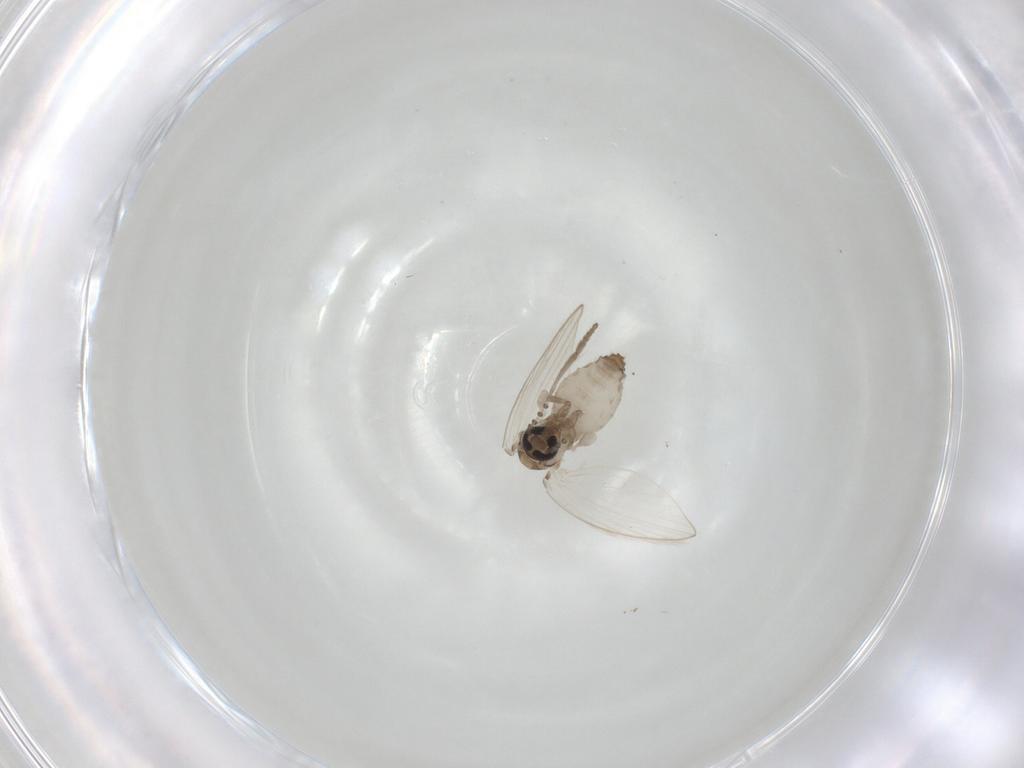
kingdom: Animalia
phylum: Arthropoda
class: Insecta
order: Diptera
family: Psychodidae
